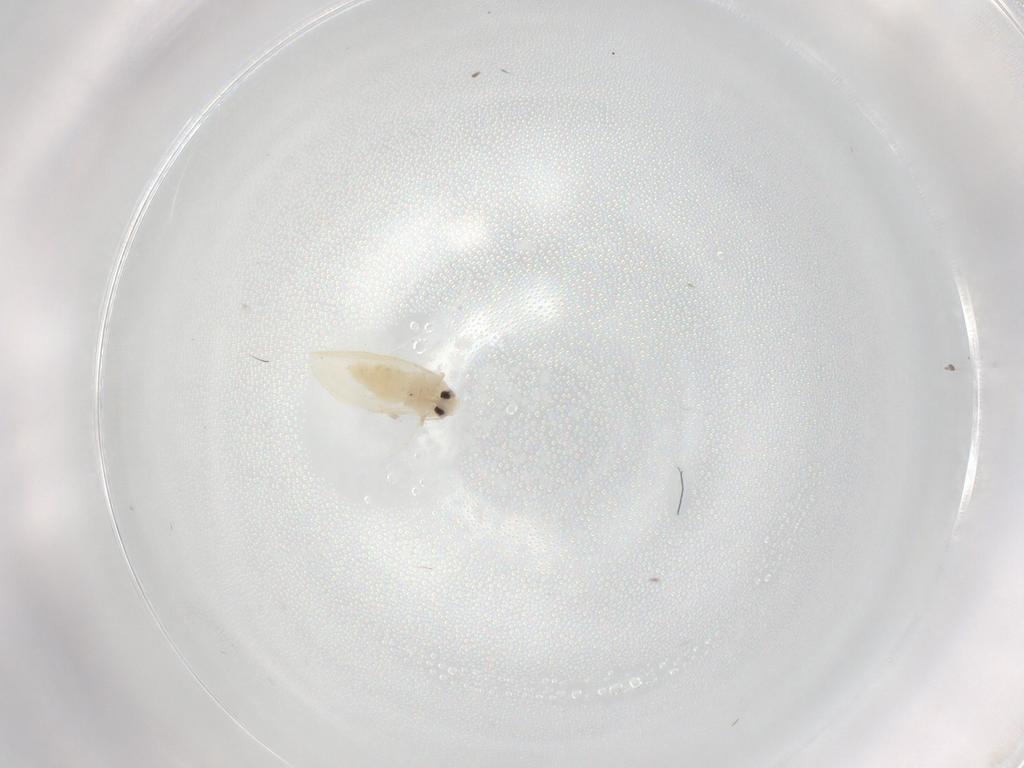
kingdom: Animalia
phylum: Arthropoda
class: Insecta
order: Hemiptera
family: Aleyrodidae
